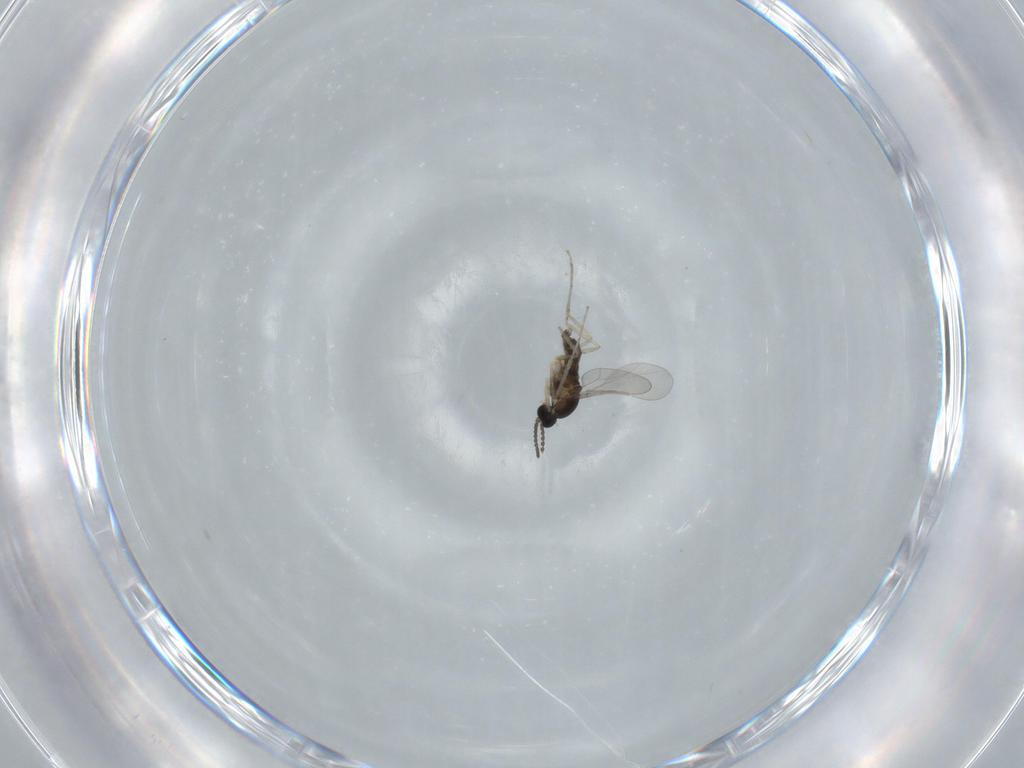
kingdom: Animalia
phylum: Arthropoda
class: Insecta
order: Diptera
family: Cecidomyiidae
